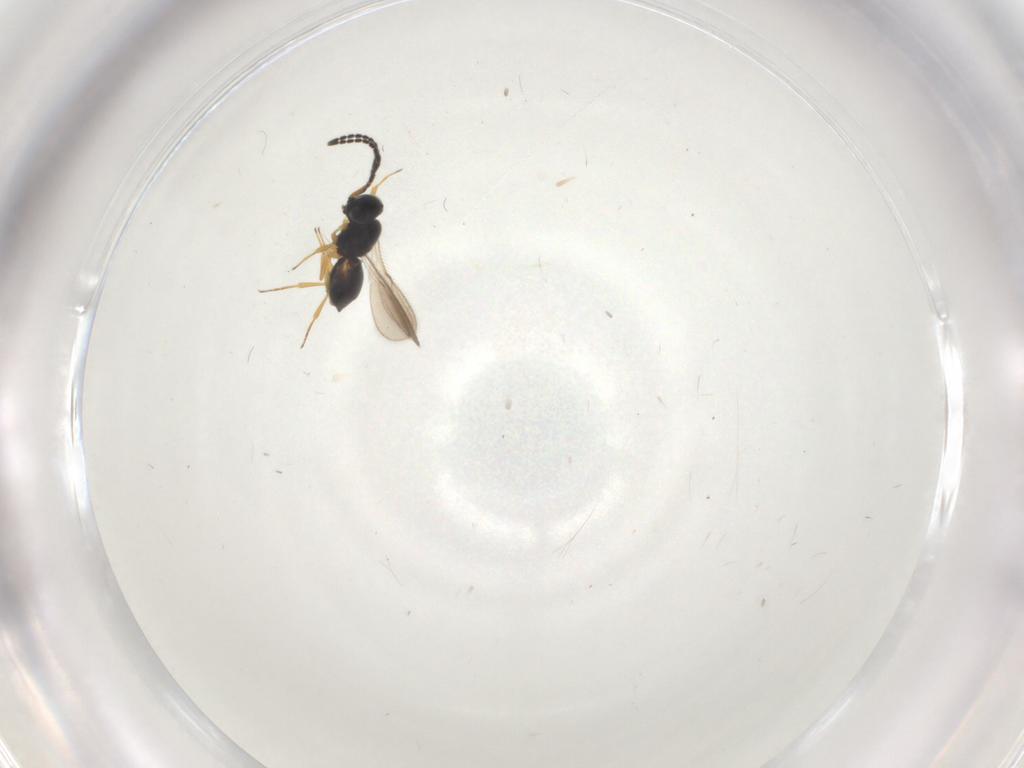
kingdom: Animalia
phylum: Arthropoda
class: Insecta
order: Hymenoptera
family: Scelionidae
